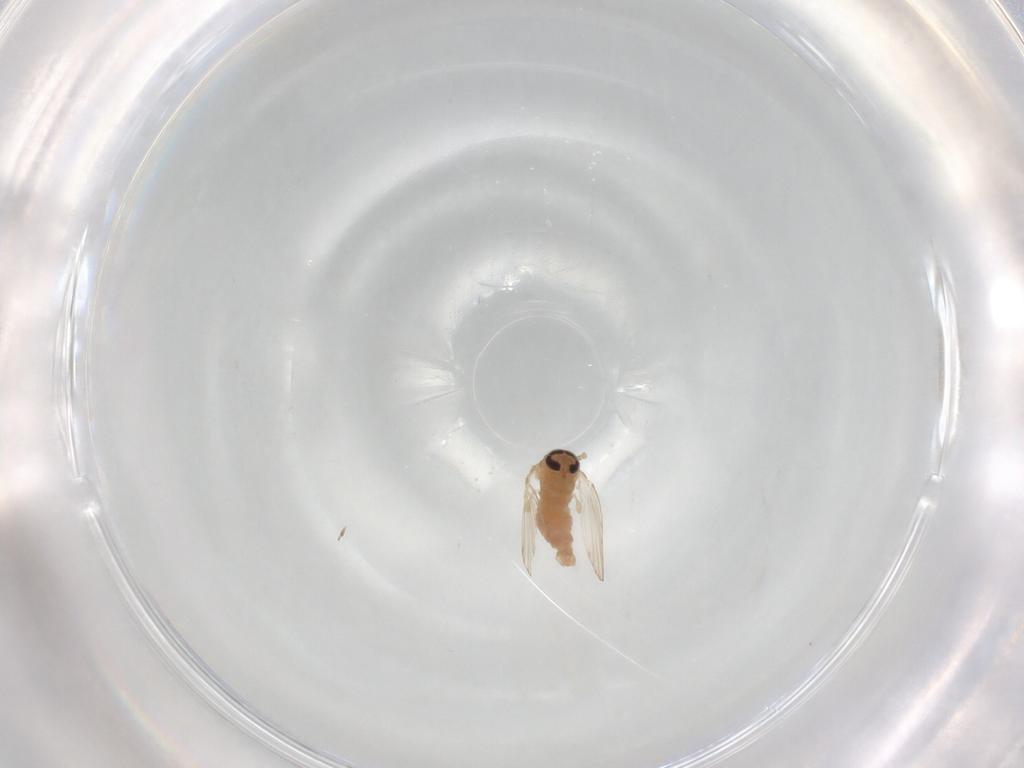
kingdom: Animalia
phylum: Arthropoda
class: Insecta
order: Diptera
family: Psychodidae
